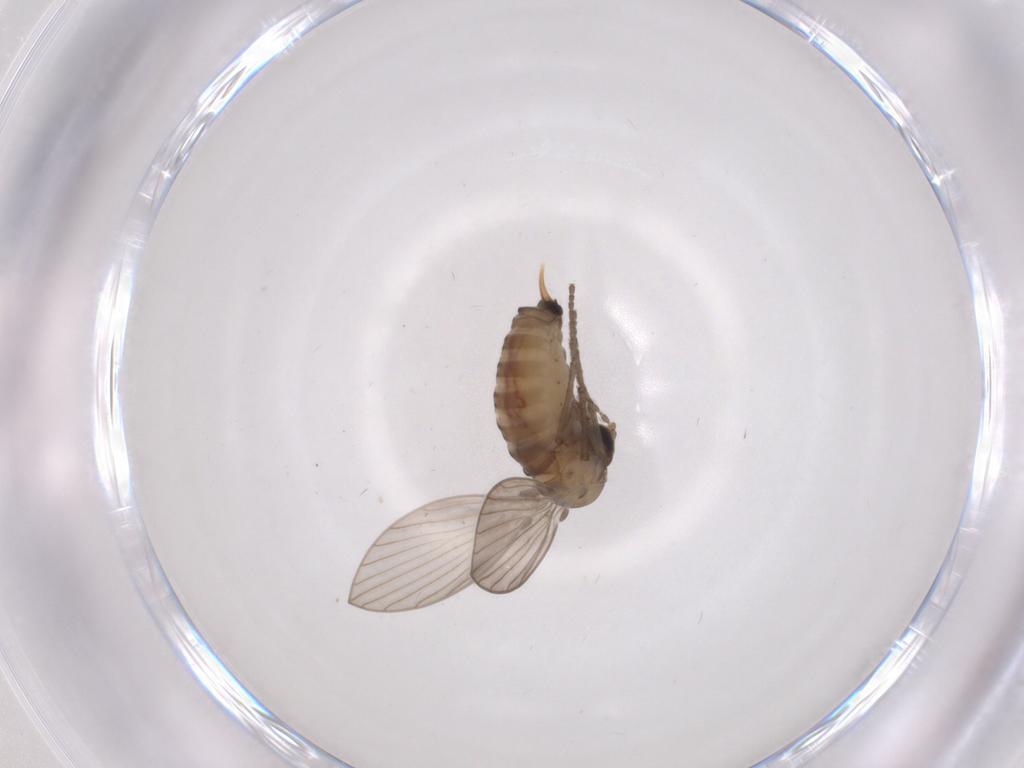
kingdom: Animalia
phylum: Arthropoda
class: Insecta
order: Diptera
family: Psychodidae
